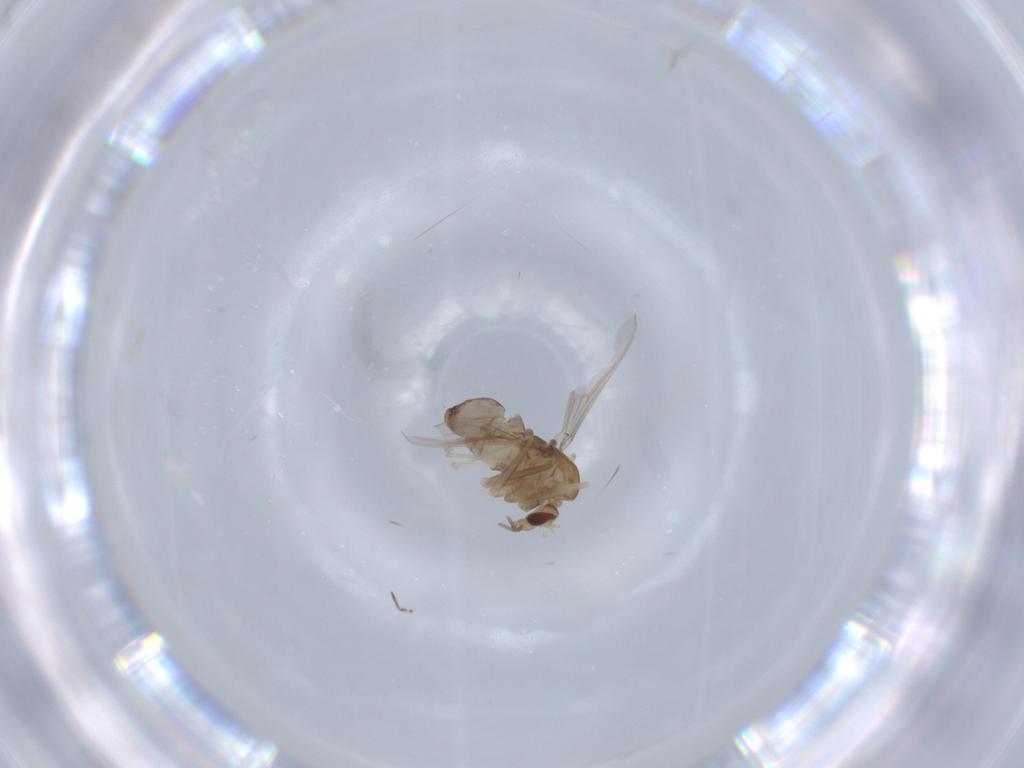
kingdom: Animalia
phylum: Arthropoda
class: Insecta
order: Diptera
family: Chironomidae
